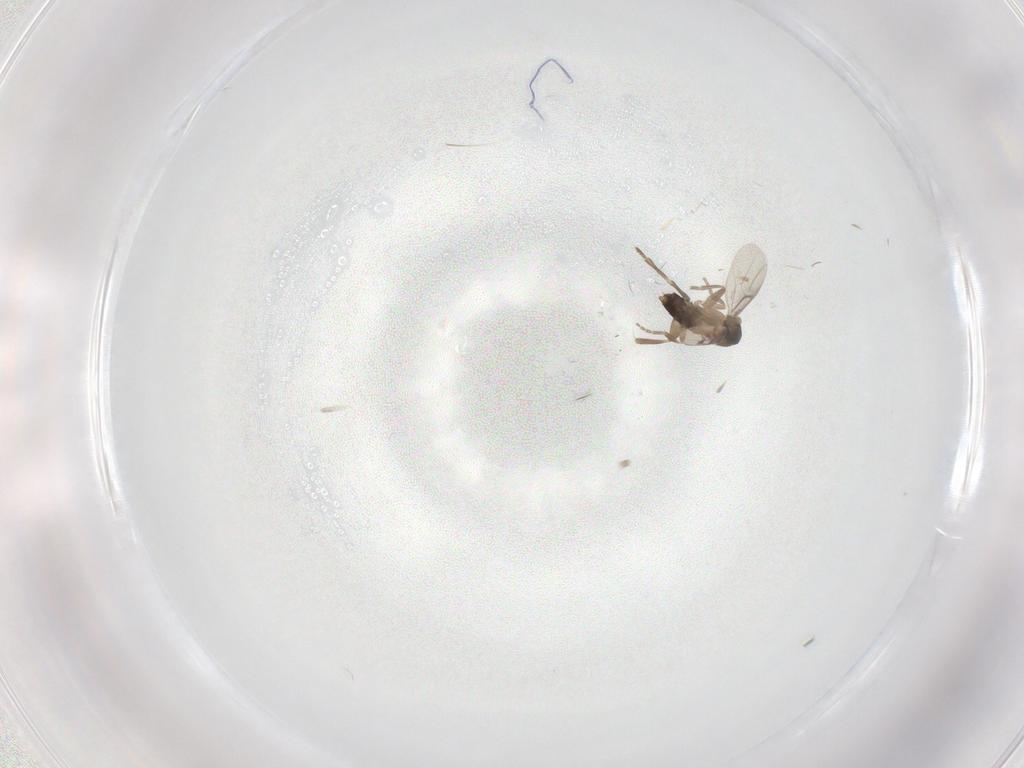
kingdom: Animalia
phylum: Arthropoda
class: Insecta
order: Diptera
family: Phoridae
